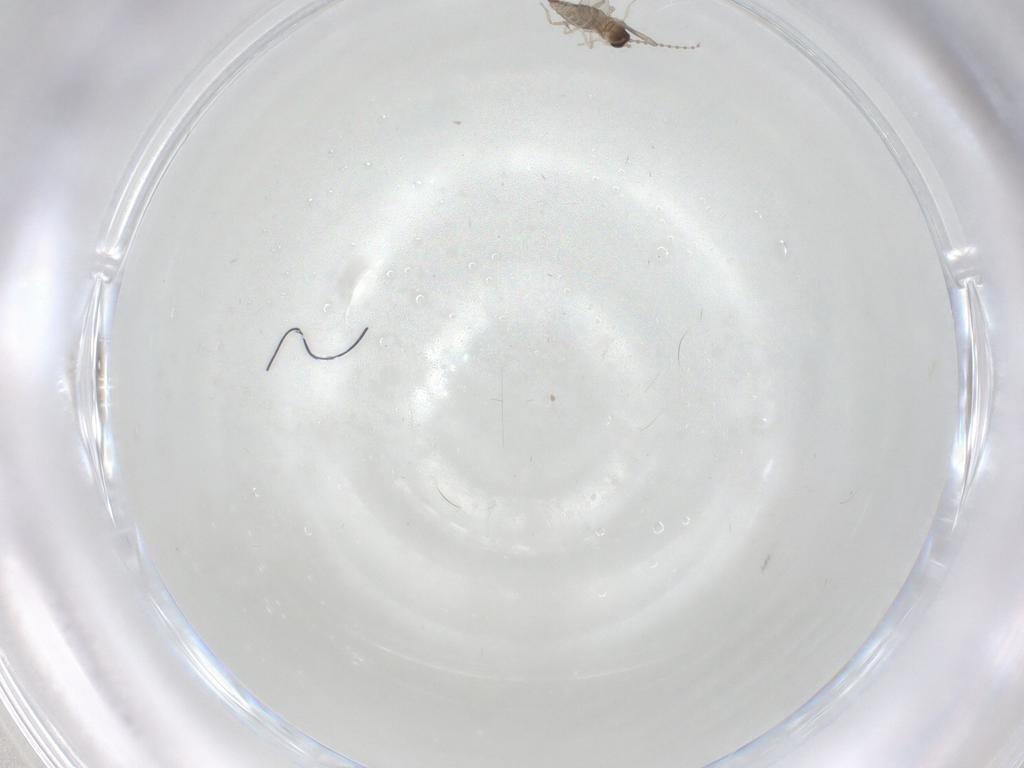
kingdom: Animalia
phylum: Arthropoda
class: Insecta
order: Diptera
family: Cecidomyiidae
